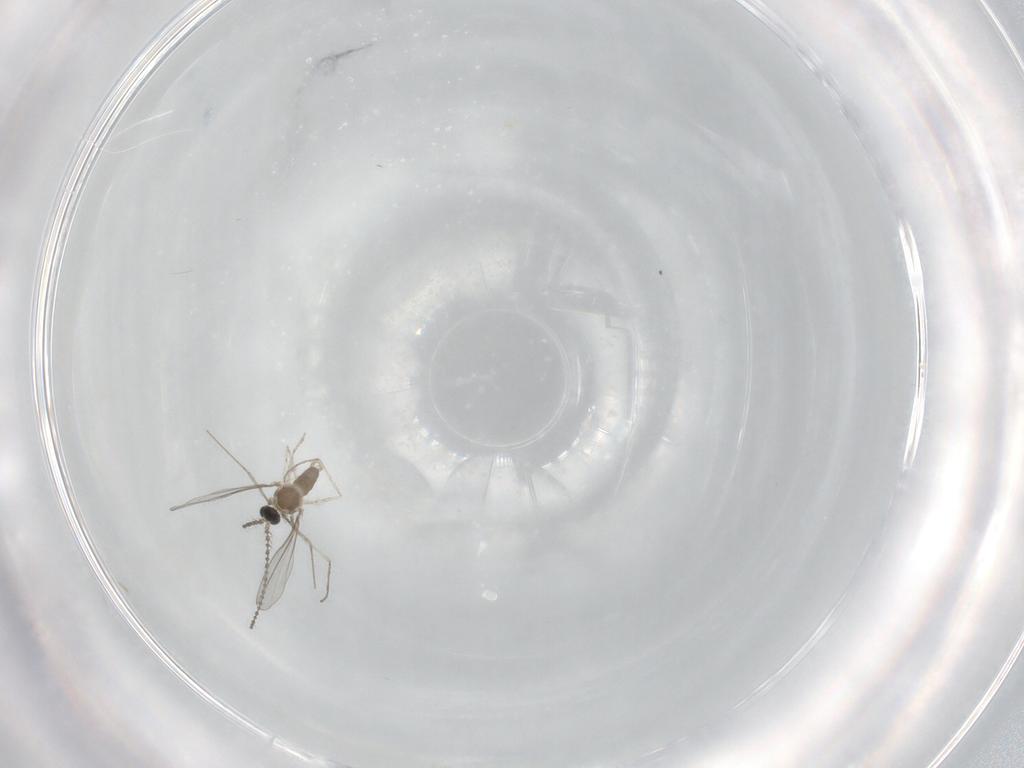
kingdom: Animalia
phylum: Arthropoda
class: Insecta
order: Diptera
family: Cecidomyiidae
